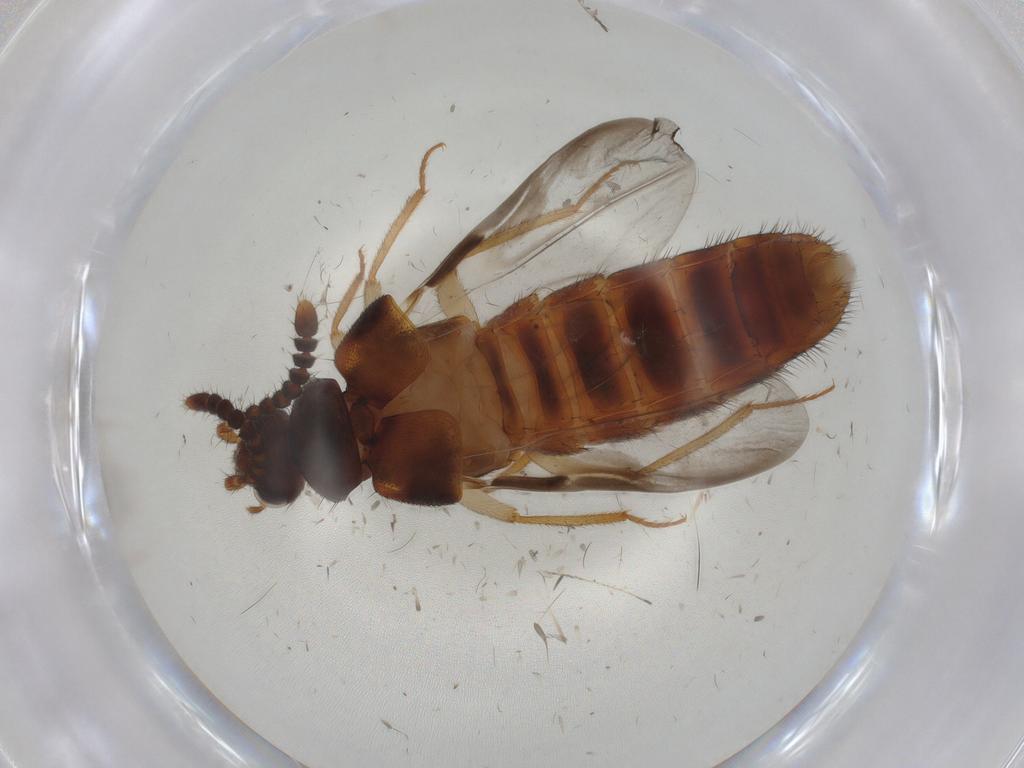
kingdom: Animalia
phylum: Arthropoda
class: Insecta
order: Coleoptera
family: Staphylinidae
